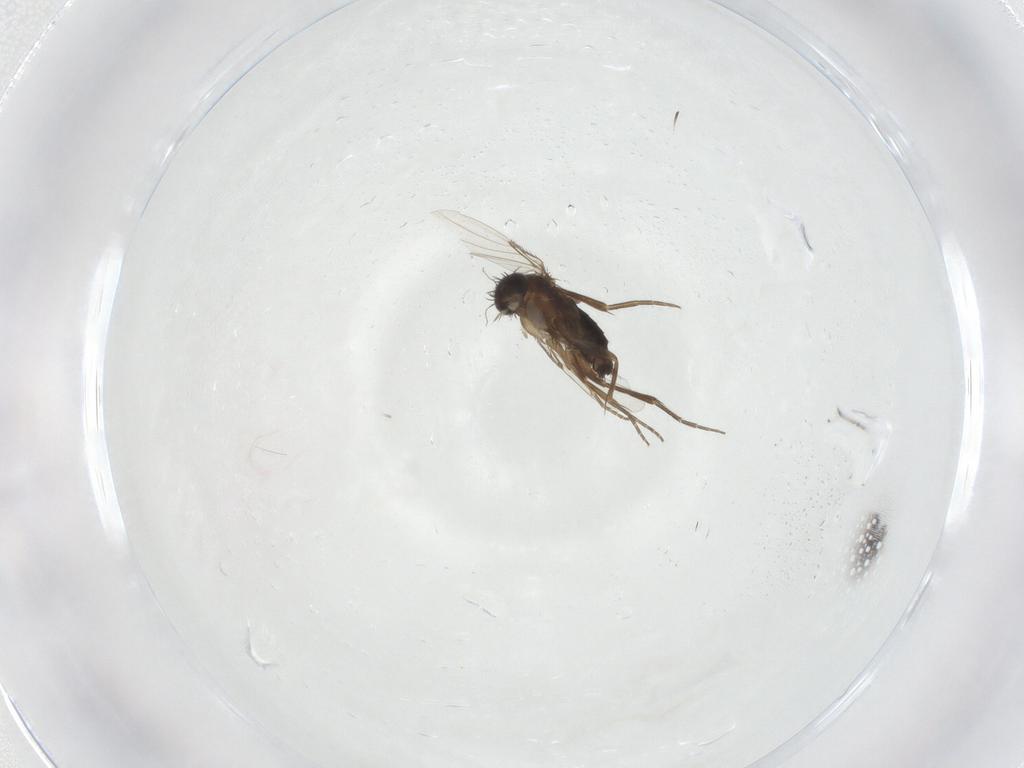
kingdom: Animalia
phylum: Arthropoda
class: Insecta
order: Diptera
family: Phoridae
